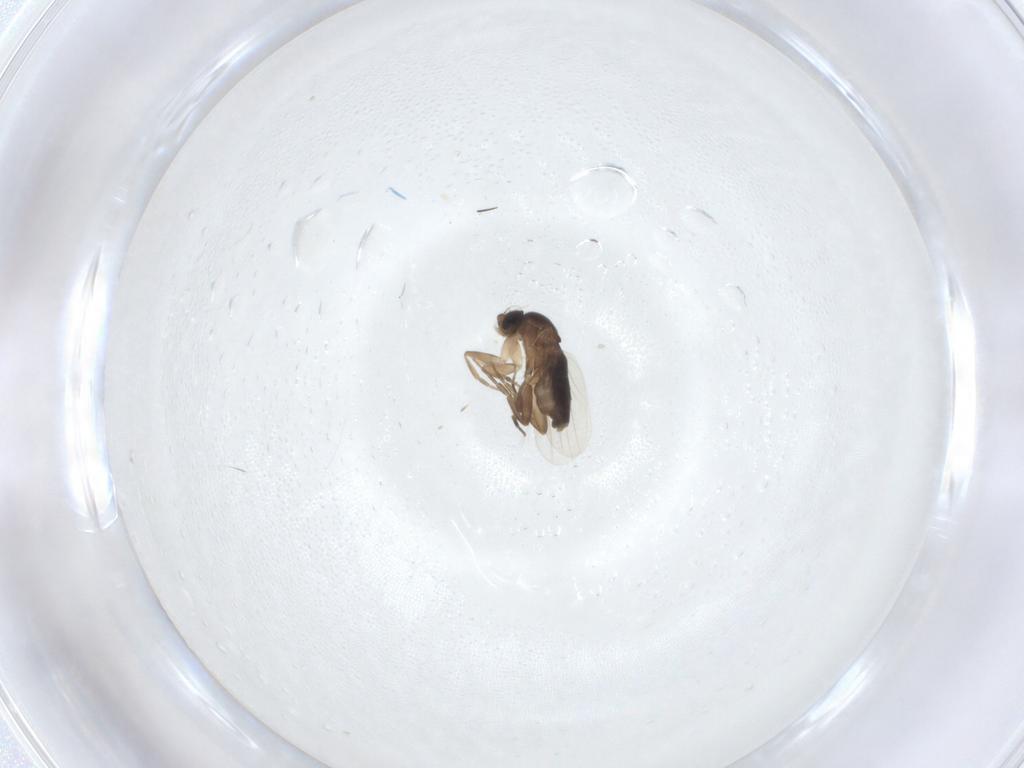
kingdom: Animalia
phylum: Arthropoda
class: Insecta
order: Diptera
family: Phoridae
